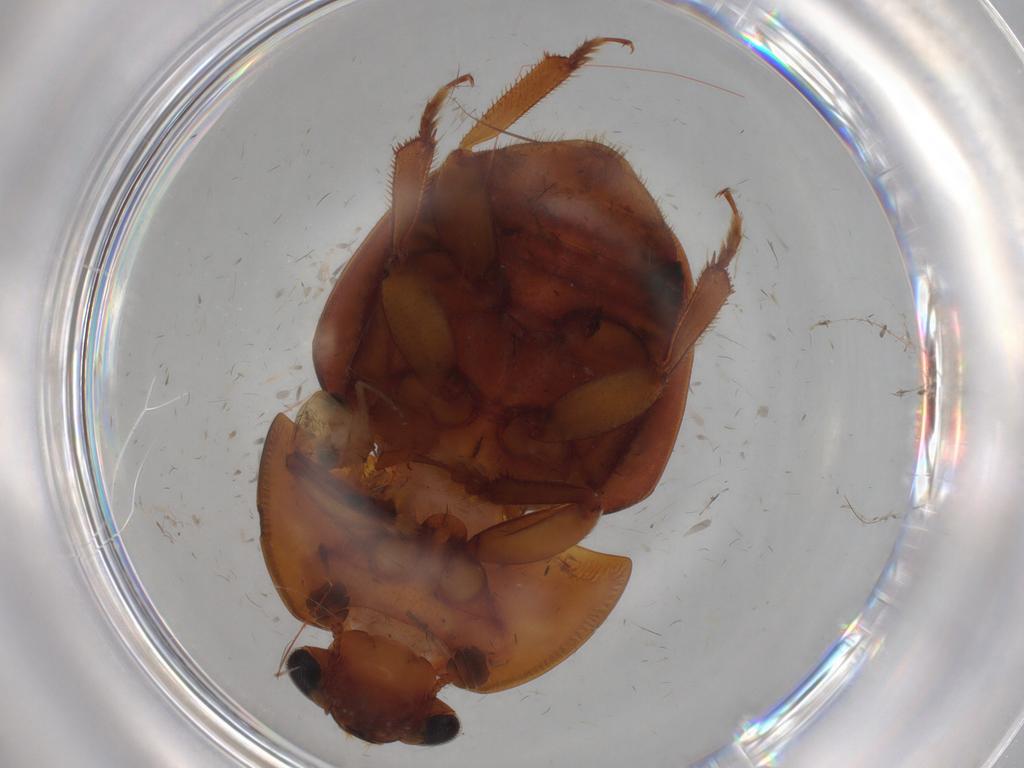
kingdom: Animalia
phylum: Arthropoda
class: Insecta
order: Coleoptera
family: Nitidulidae
